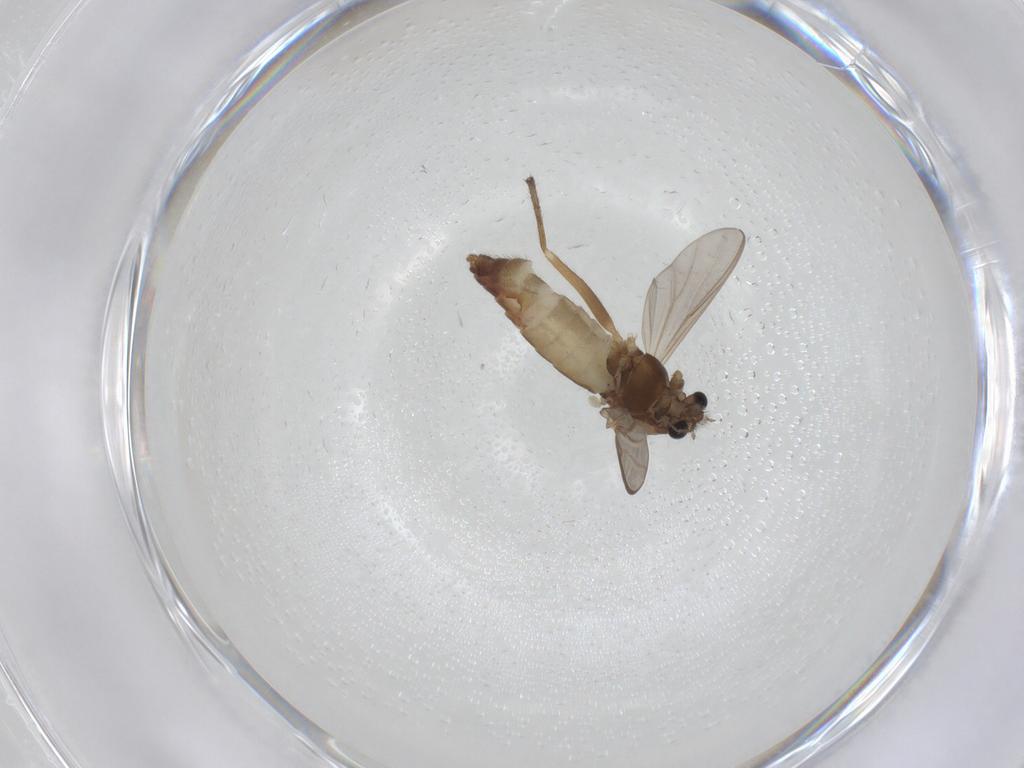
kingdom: Animalia
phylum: Arthropoda
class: Insecta
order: Diptera
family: Chironomidae
